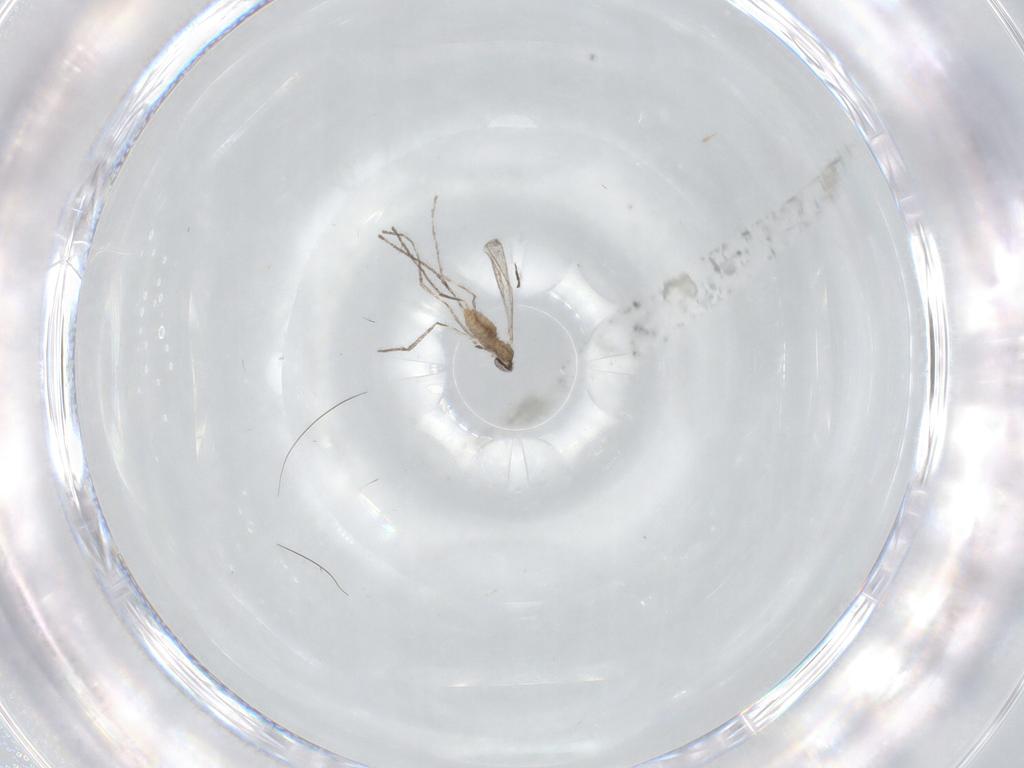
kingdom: Animalia
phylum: Arthropoda
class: Insecta
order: Diptera
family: Cecidomyiidae
